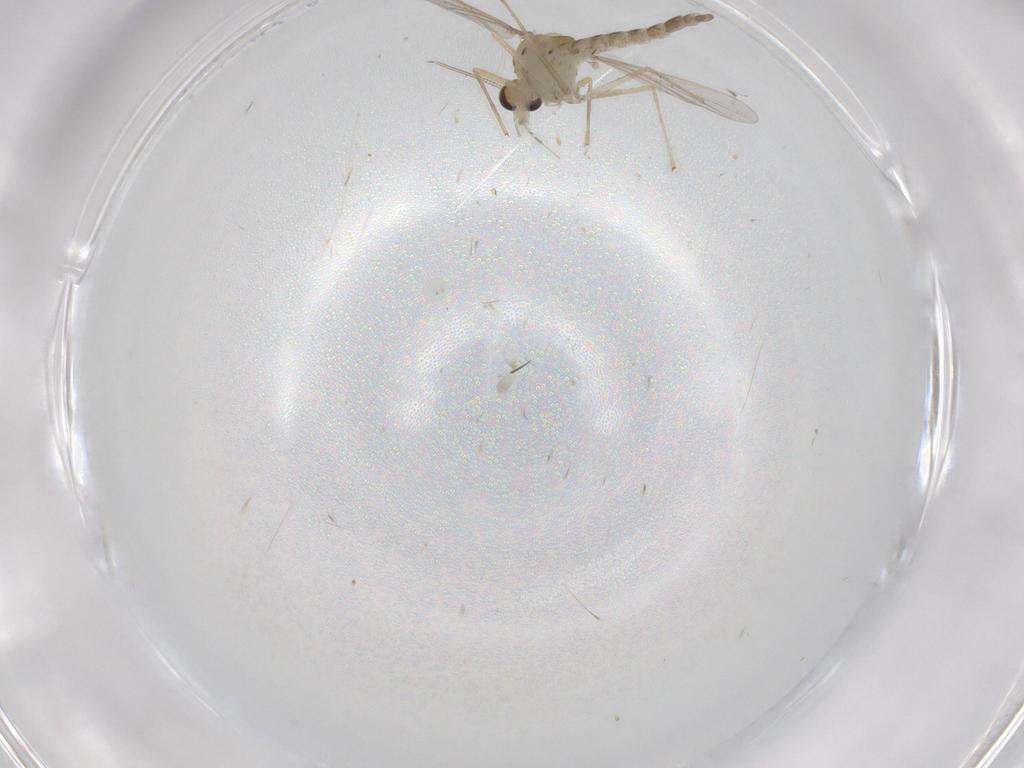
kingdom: Animalia
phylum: Arthropoda
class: Insecta
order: Diptera
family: Chironomidae
